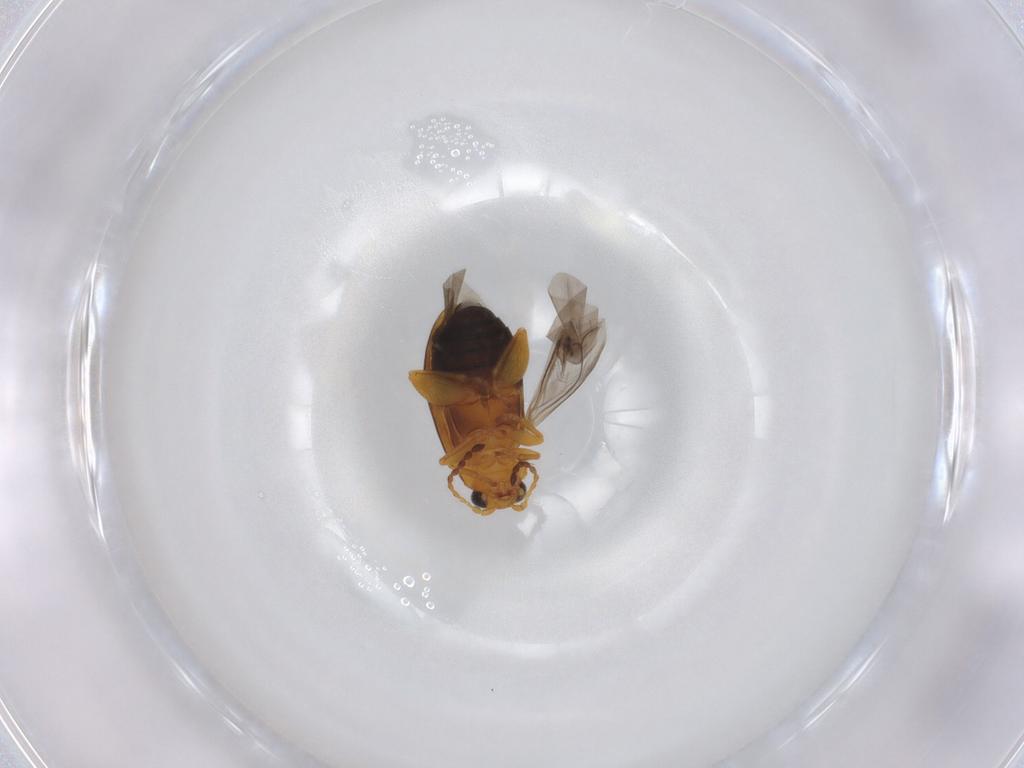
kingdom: Animalia
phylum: Arthropoda
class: Insecta
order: Coleoptera
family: Chrysomelidae
